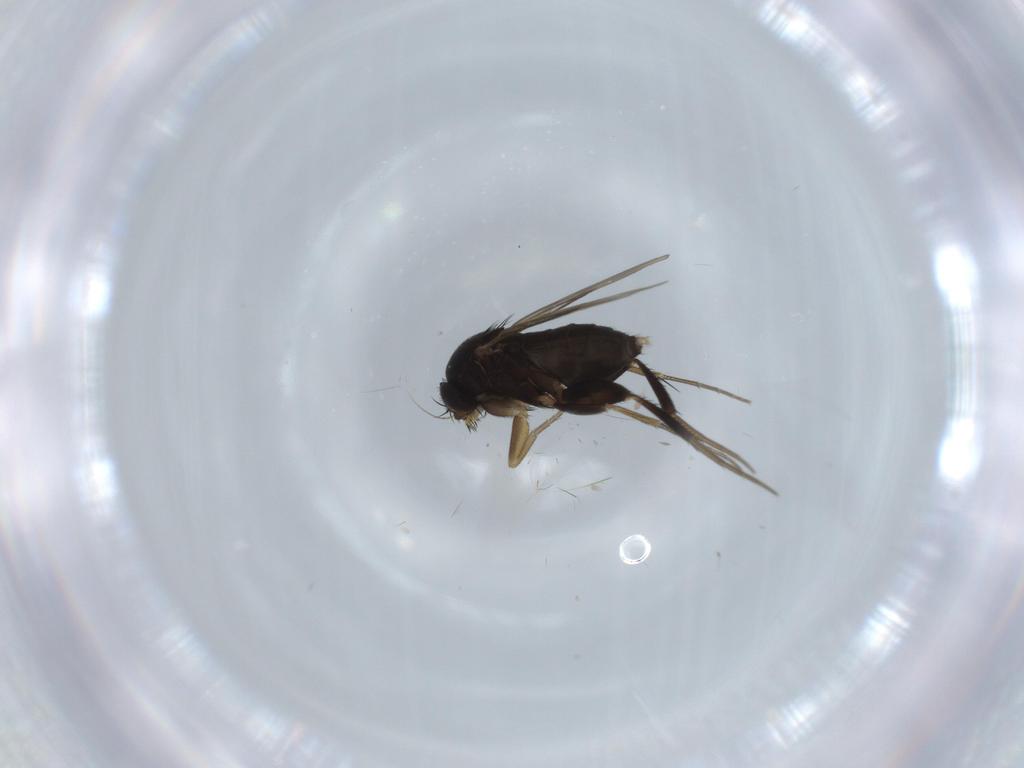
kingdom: Animalia
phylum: Arthropoda
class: Insecta
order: Diptera
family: Phoridae
